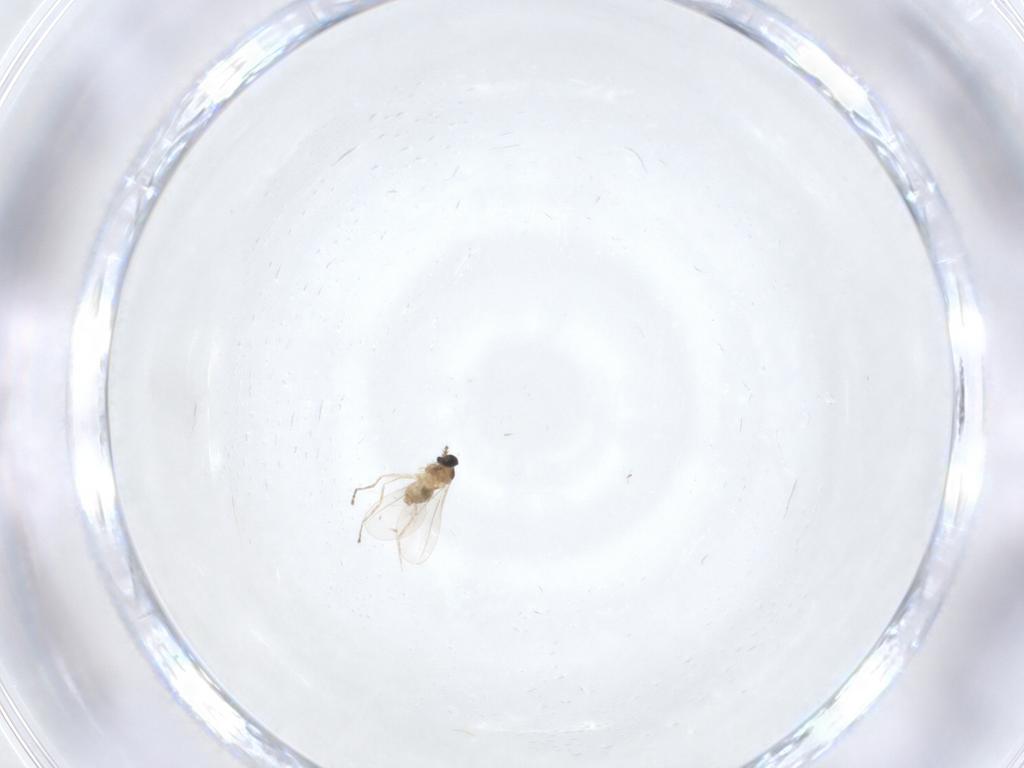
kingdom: Animalia
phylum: Arthropoda
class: Insecta
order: Diptera
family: Cecidomyiidae
